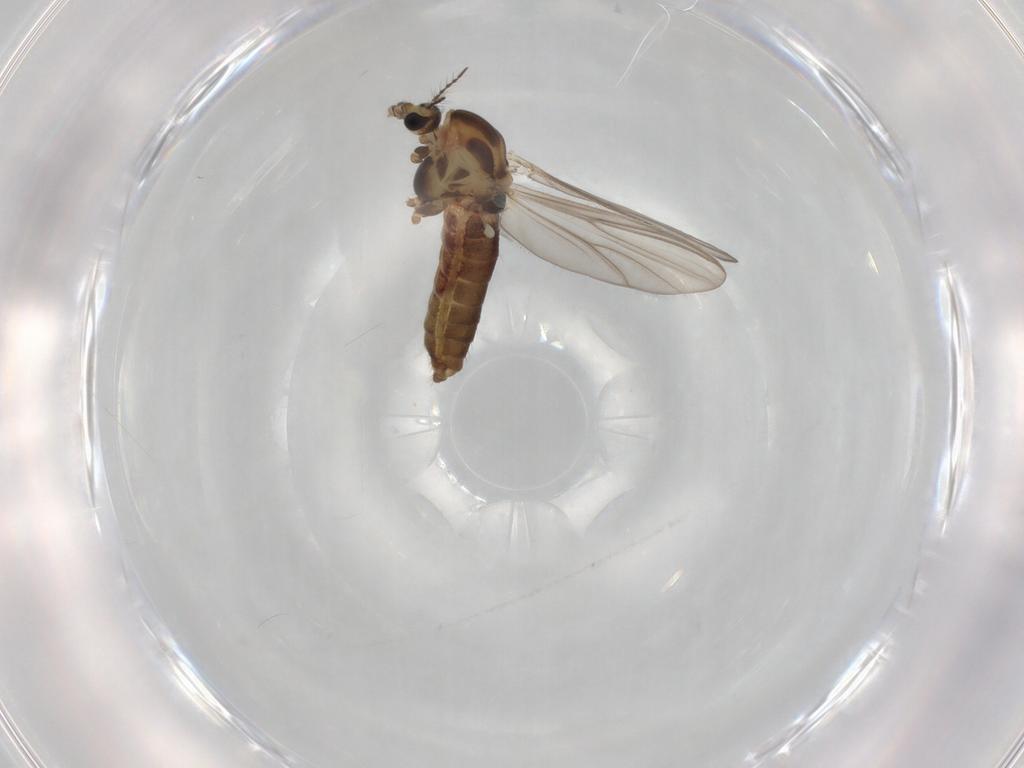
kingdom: Animalia
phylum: Arthropoda
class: Insecta
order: Diptera
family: Chironomidae
